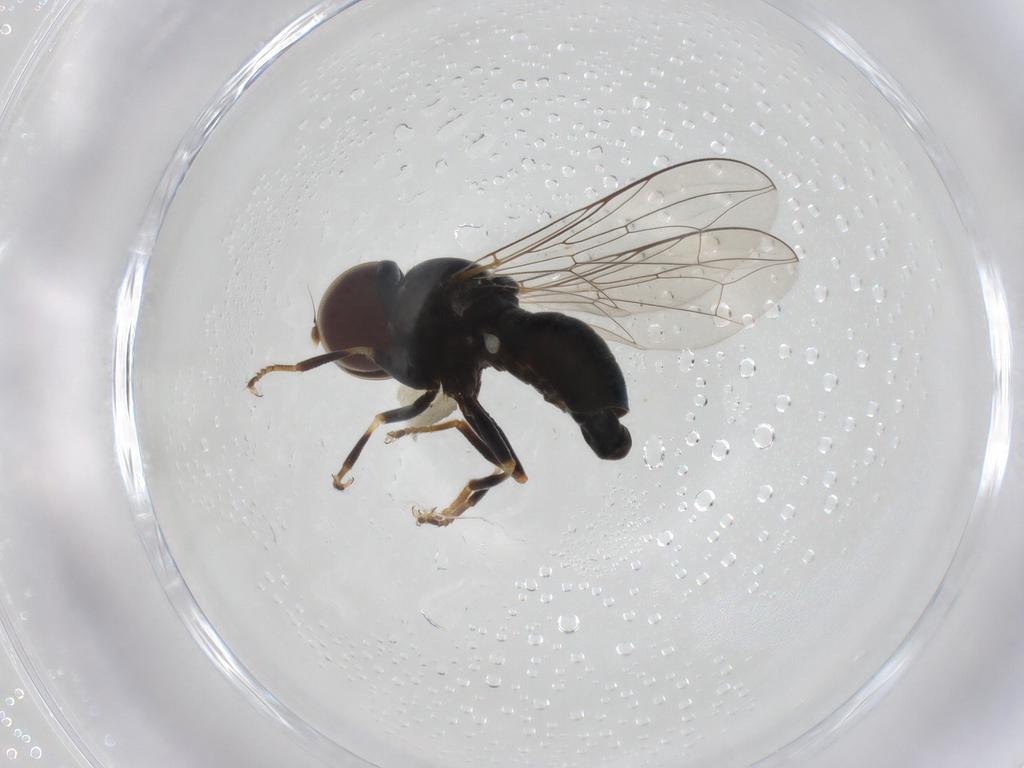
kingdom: Animalia
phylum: Arthropoda
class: Insecta
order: Diptera
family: Pipunculidae
